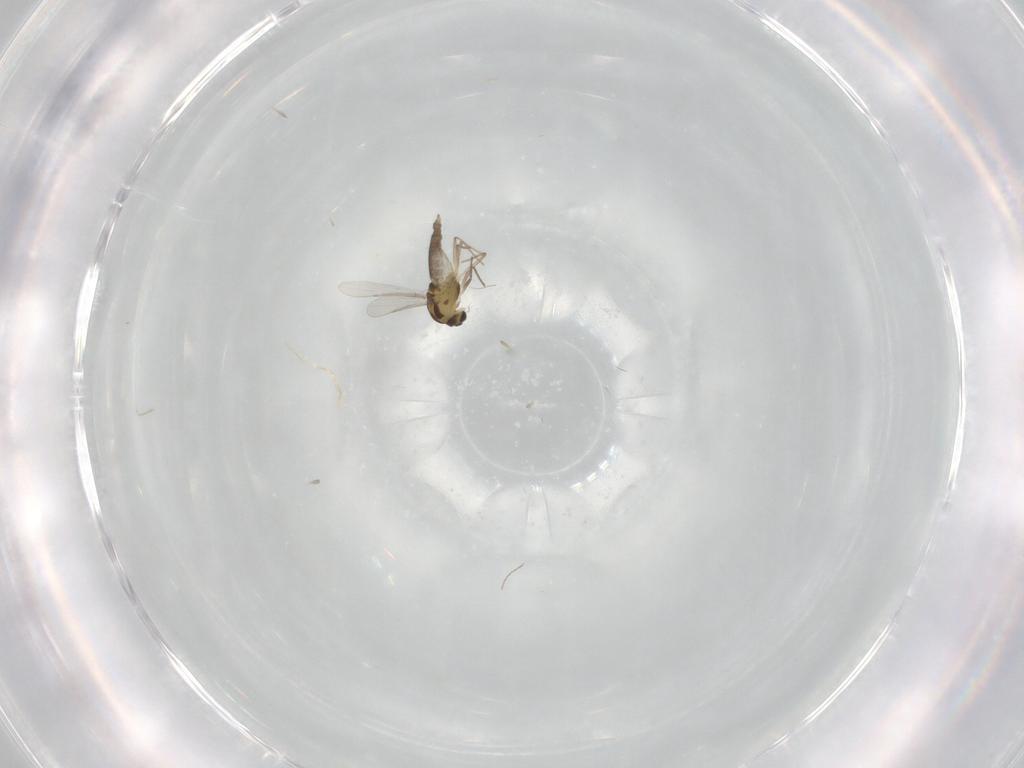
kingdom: Animalia
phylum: Arthropoda
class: Insecta
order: Diptera
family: Chironomidae
